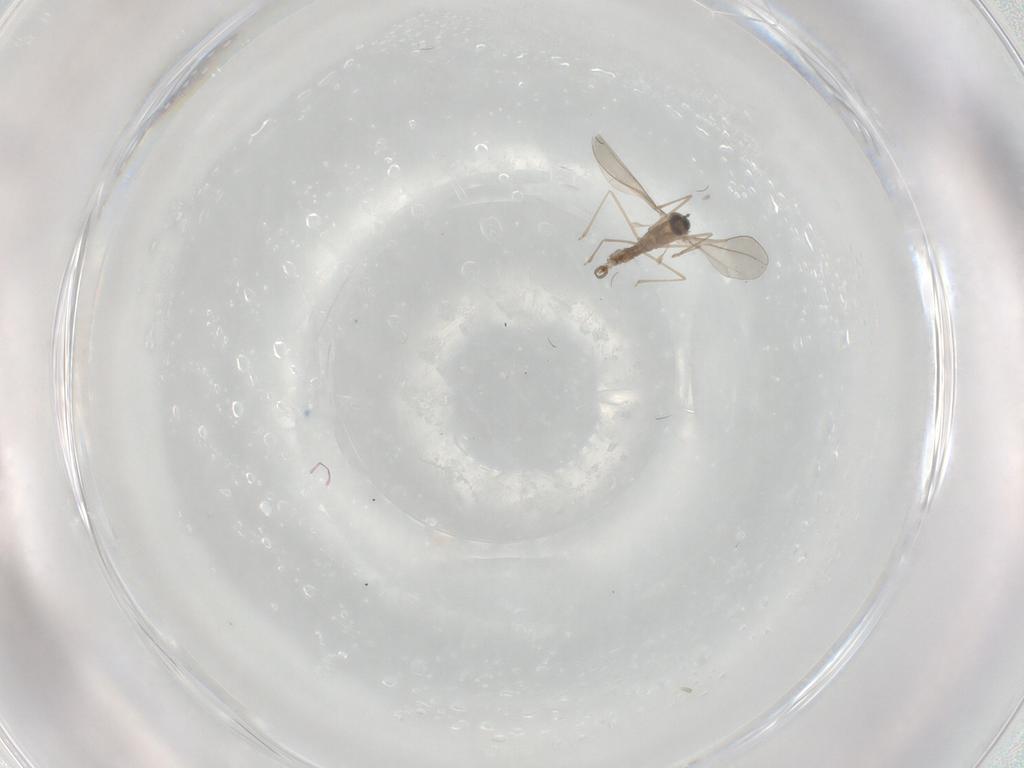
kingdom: Animalia
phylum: Arthropoda
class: Insecta
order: Diptera
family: Cecidomyiidae
